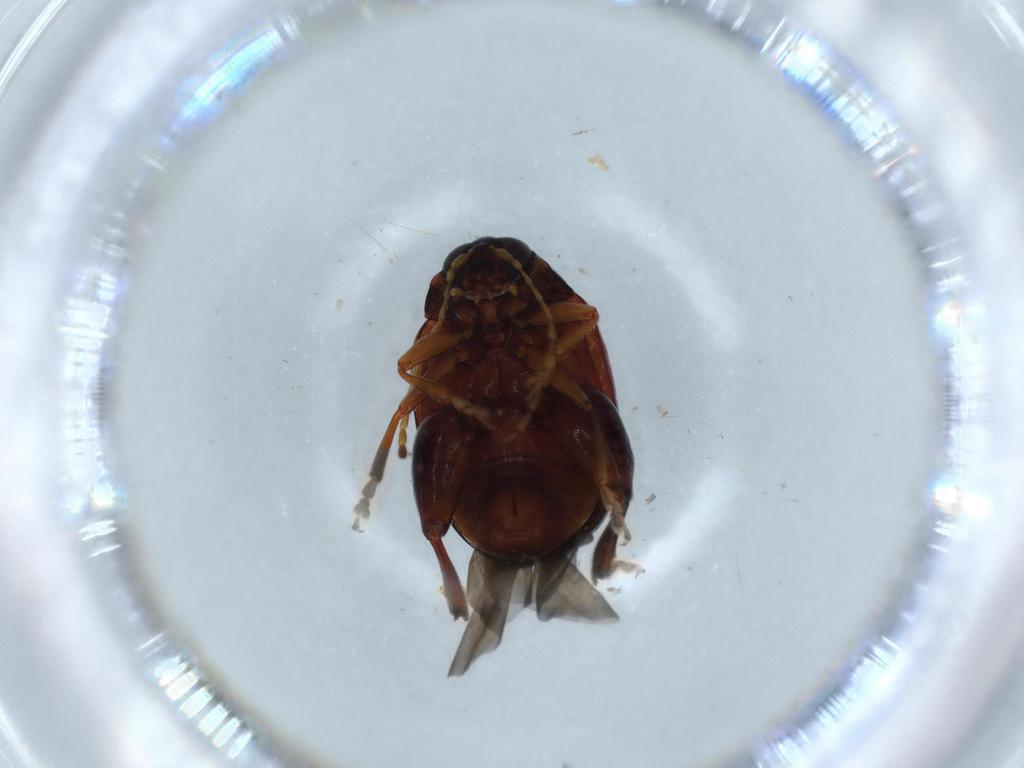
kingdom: Animalia
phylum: Arthropoda
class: Insecta
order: Coleoptera
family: Chrysomelidae
